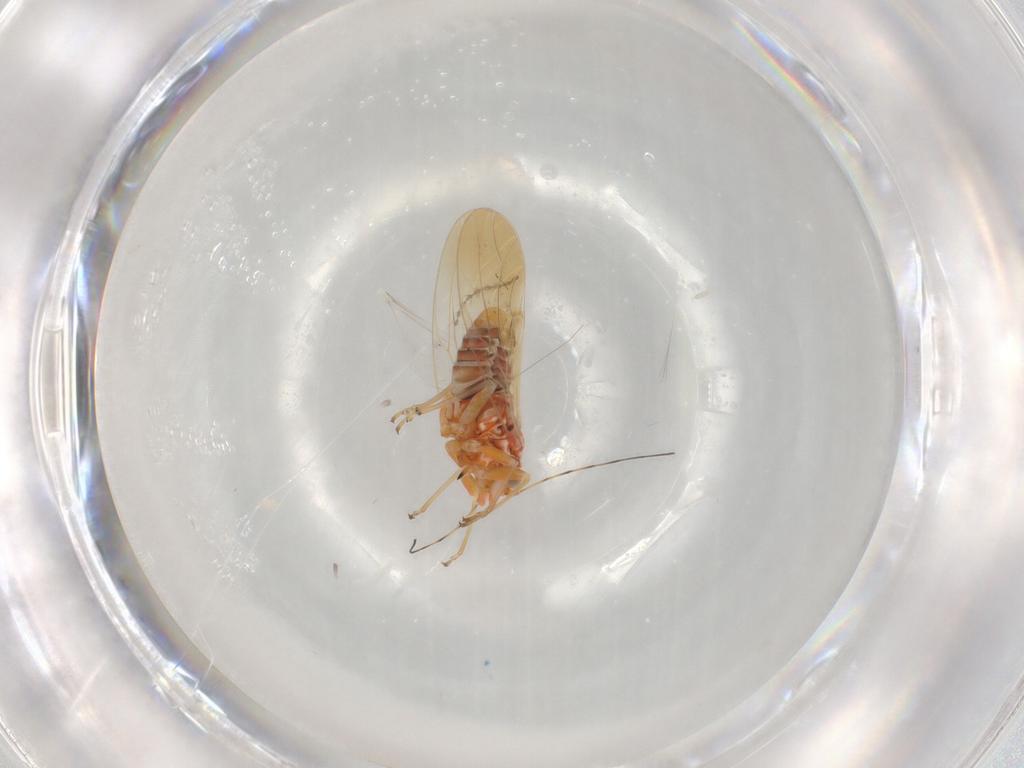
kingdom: Animalia
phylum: Arthropoda
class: Insecta
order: Hemiptera
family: Psyllidae
